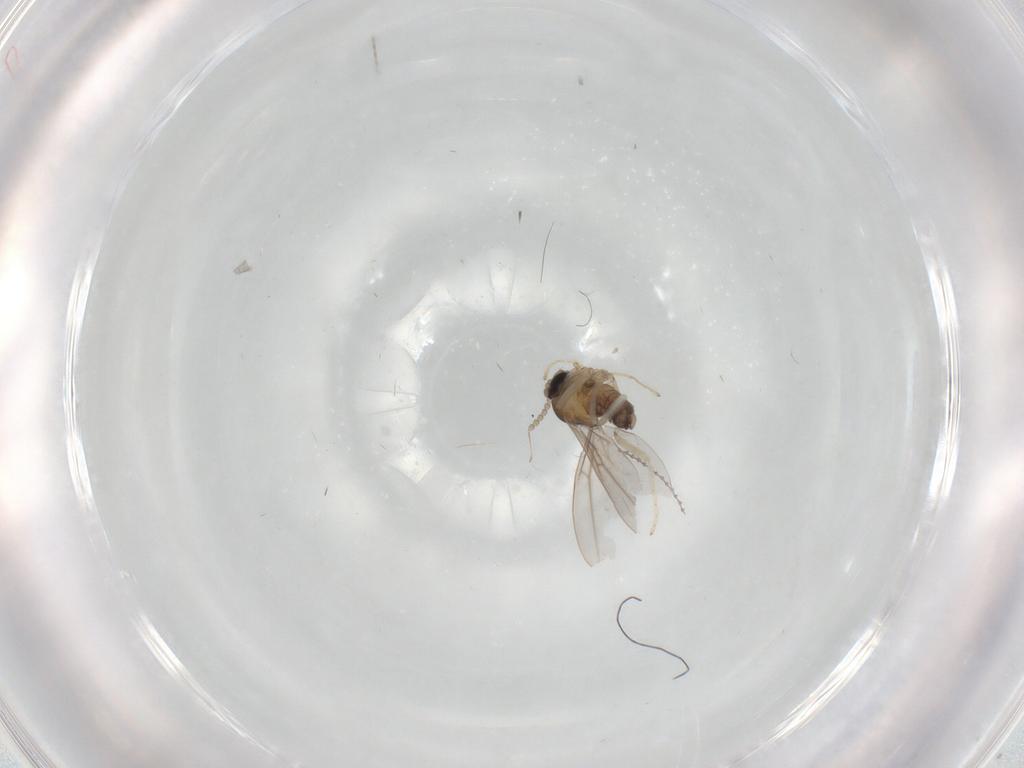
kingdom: Animalia
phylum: Arthropoda
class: Insecta
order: Diptera
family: Cecidomyiidae
